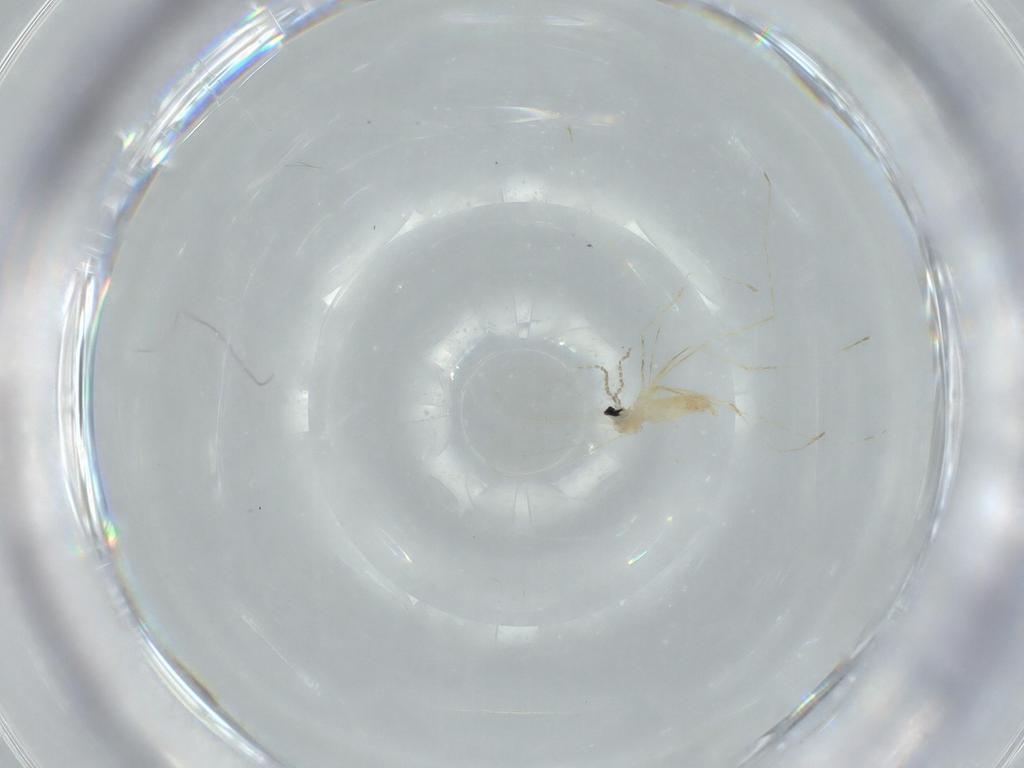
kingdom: Animalia
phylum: Arthropoda
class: Insecta
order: Diptera
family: Cecidomyiidae
